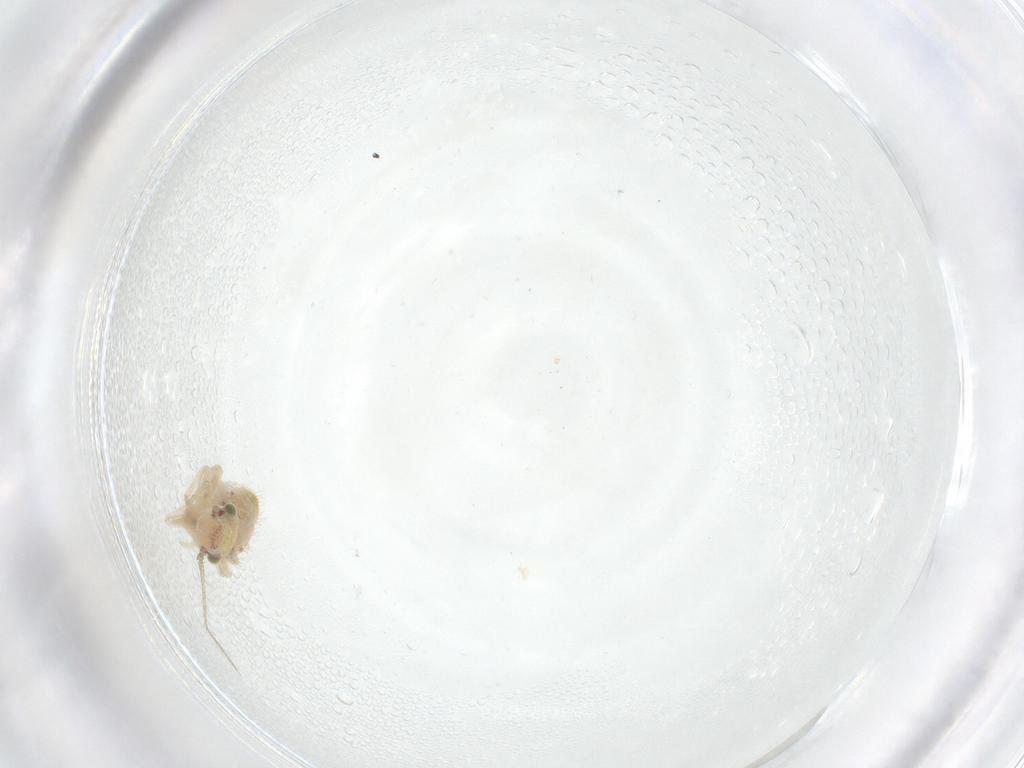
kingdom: Animalia
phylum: Arthropoda
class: Insecta
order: Psocodea
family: Pseudocaeciliidae
